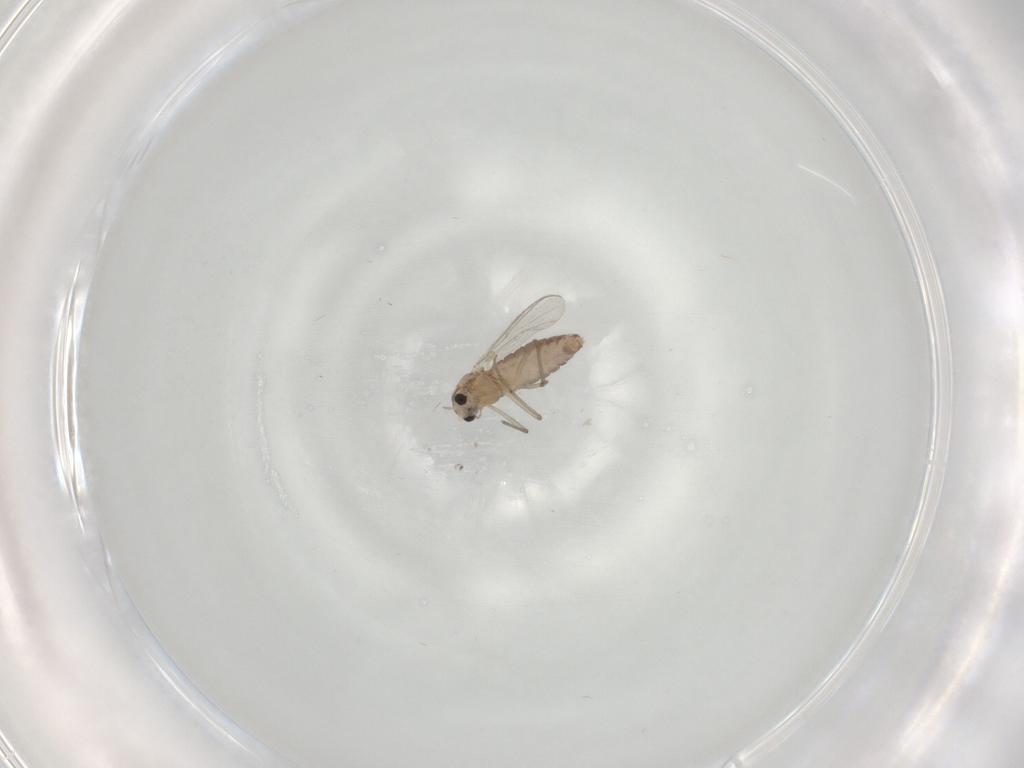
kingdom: Animalia
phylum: Arthropoda
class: Insecta
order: Diptera
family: Chironomidae
